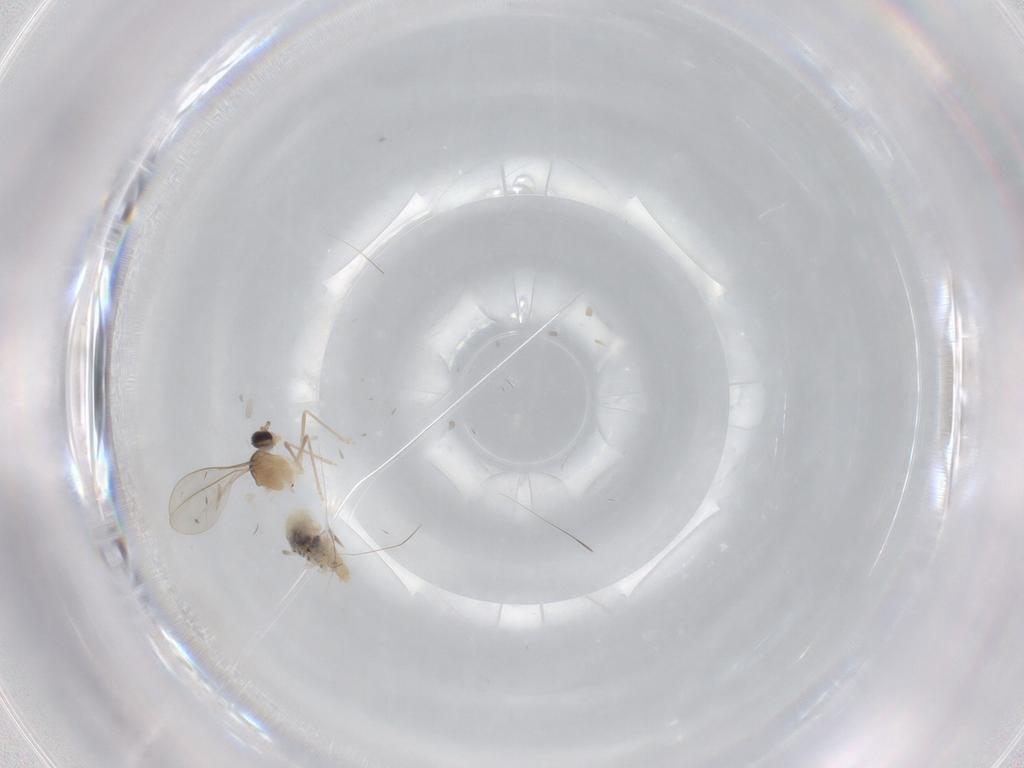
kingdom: Animalia
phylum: Arthropoda
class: Insecta
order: Diptera
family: Cecidomyiidae
